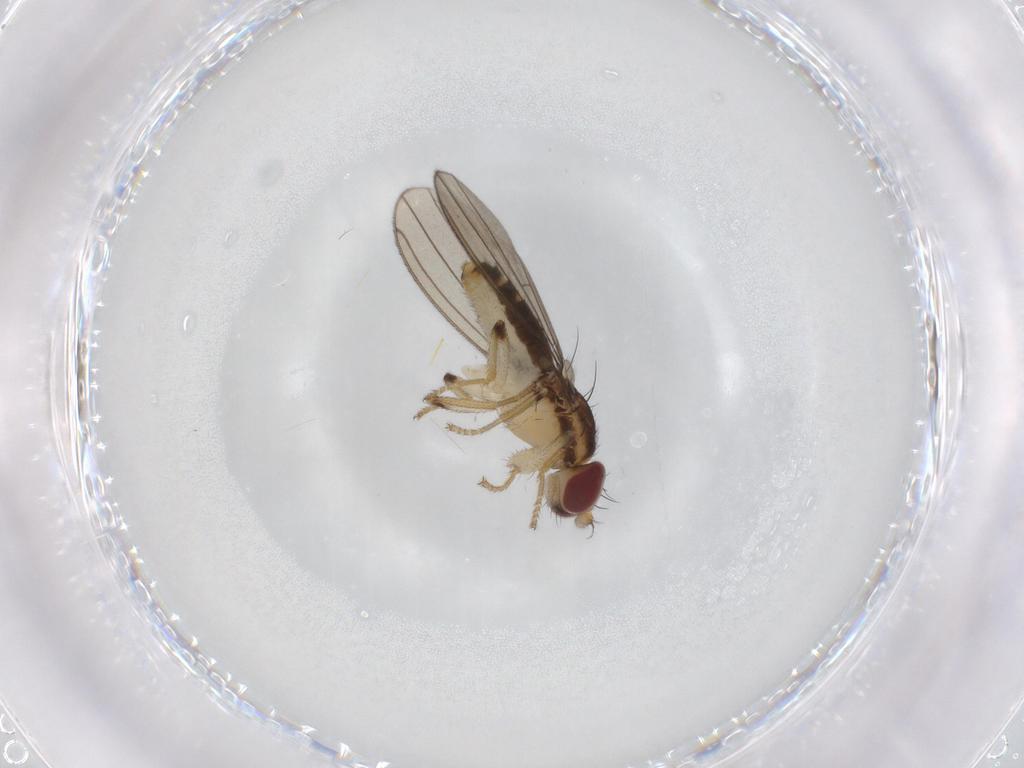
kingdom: Animalia
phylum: Arthropoda
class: Insecta
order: Diptera
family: Anthomyzidae
